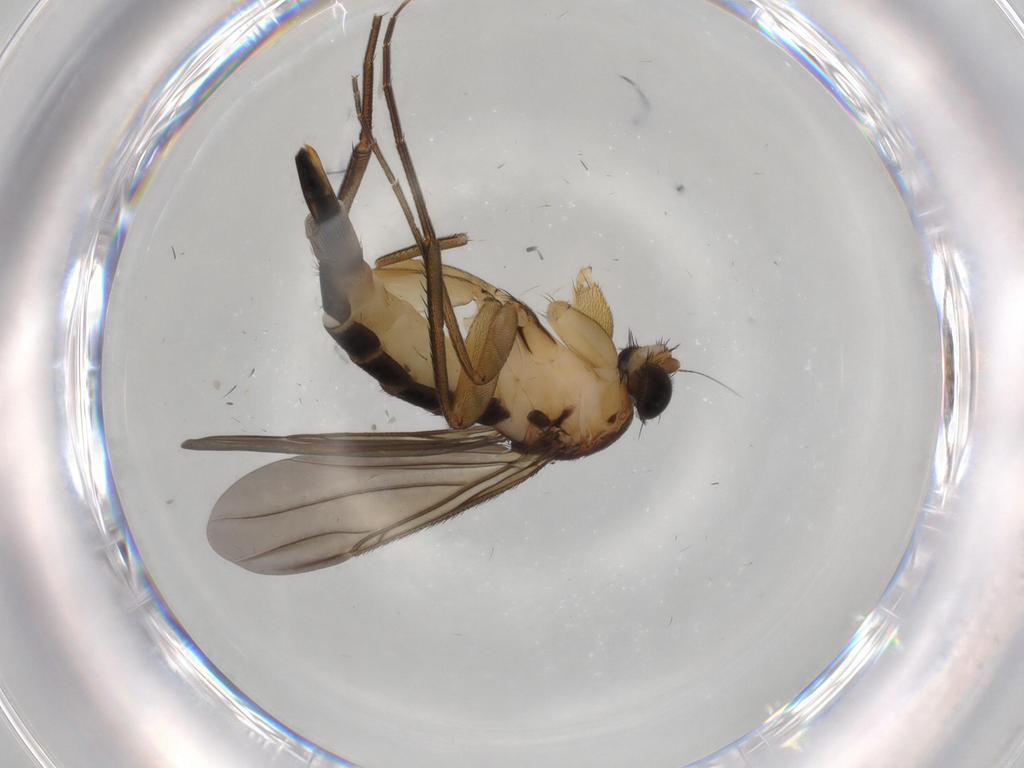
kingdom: Animalia
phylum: Arthropoda
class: Insecta
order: Diptera
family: Phoridae
